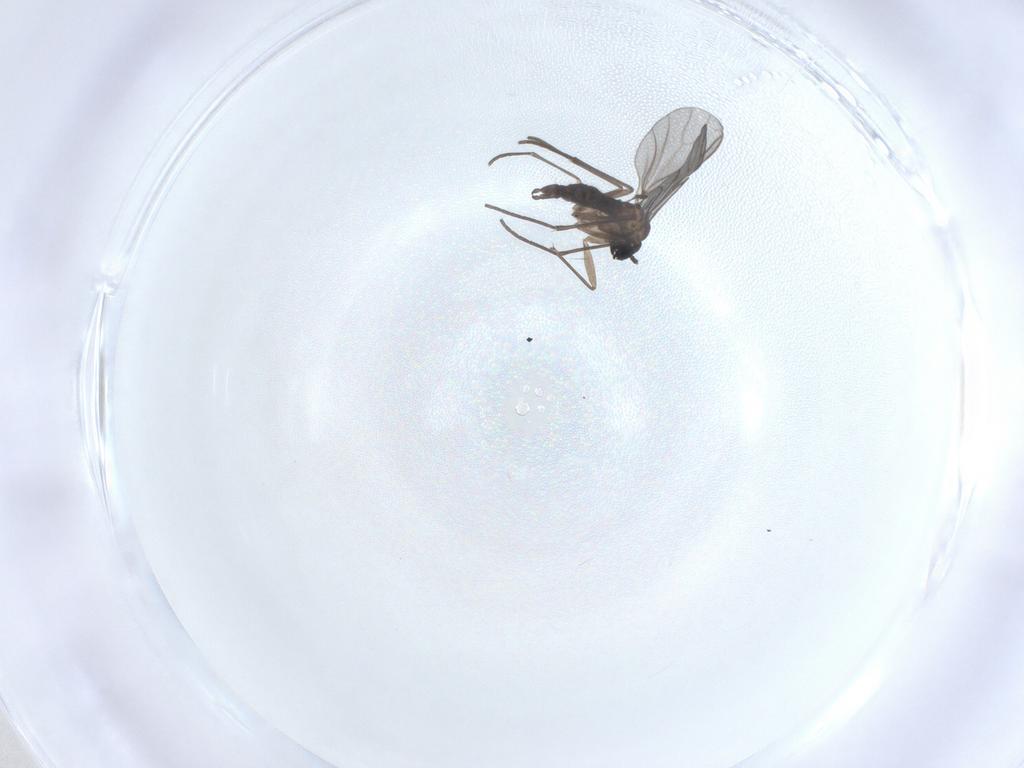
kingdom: Animalia
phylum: Arthropoda
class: Insecta
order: Diptera
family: Sciaridae
